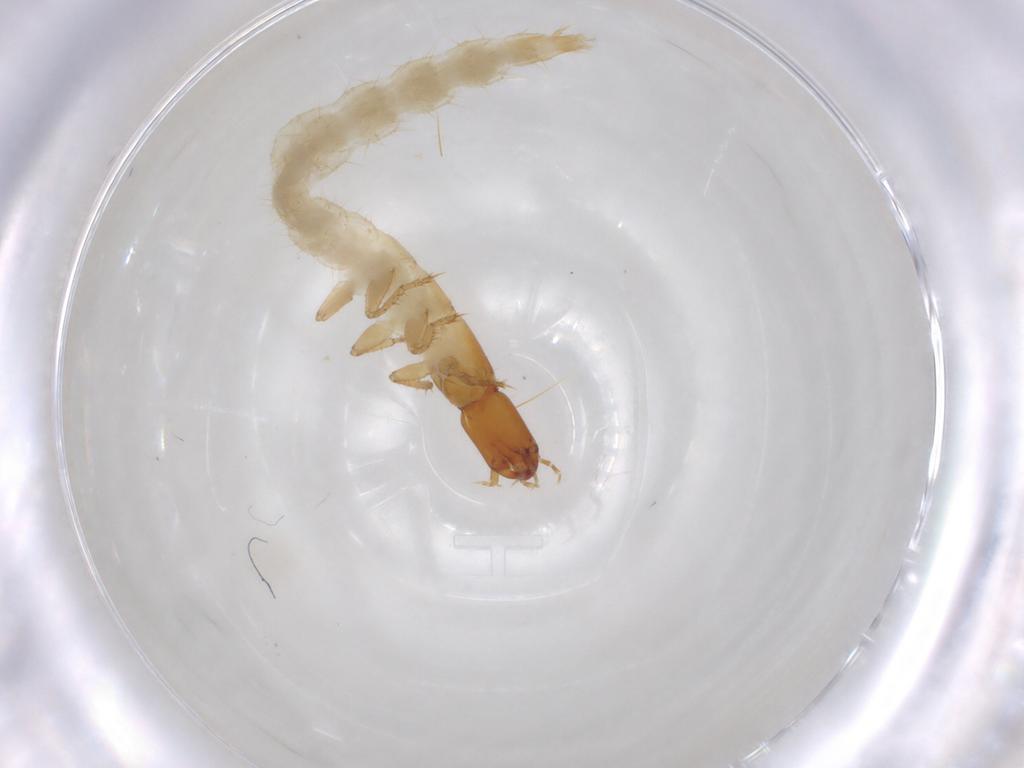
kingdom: Animalia
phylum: Arthropoda
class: Insecta
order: Coleoptera
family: Staphylinidae
